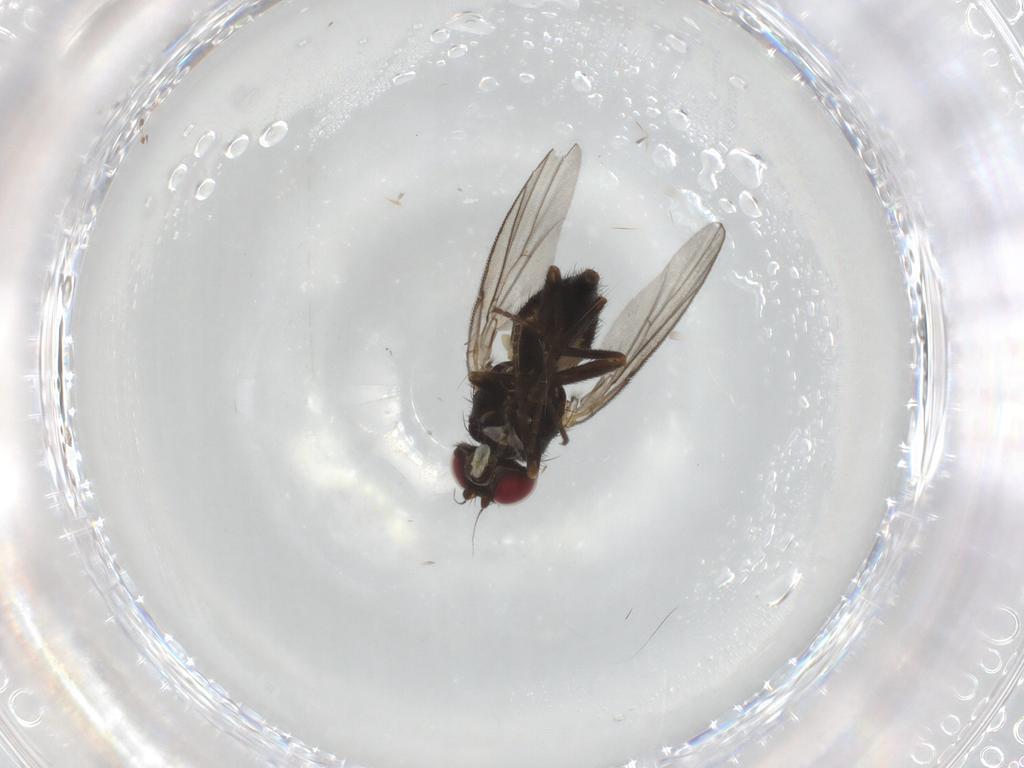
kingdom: Animalia
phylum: Arthropoda
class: Insecta
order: Diptera
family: Agromyzidae
